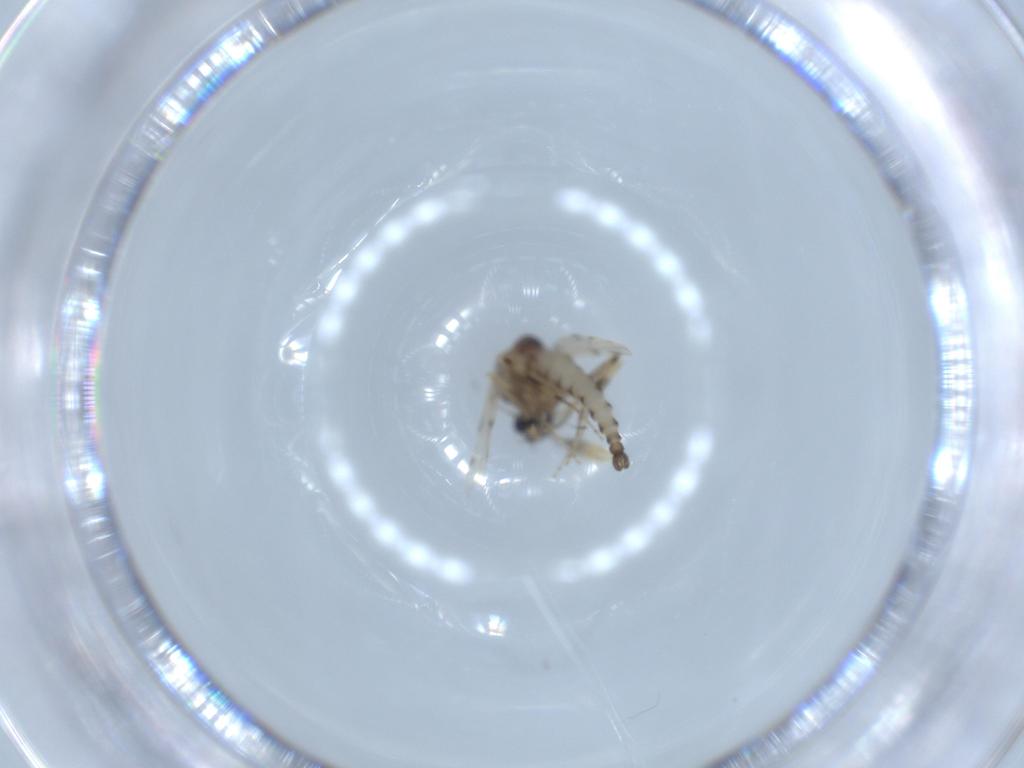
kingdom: Animalia
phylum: Arthropoda
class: Insecta
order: Diptera
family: Ceratopogonidae
